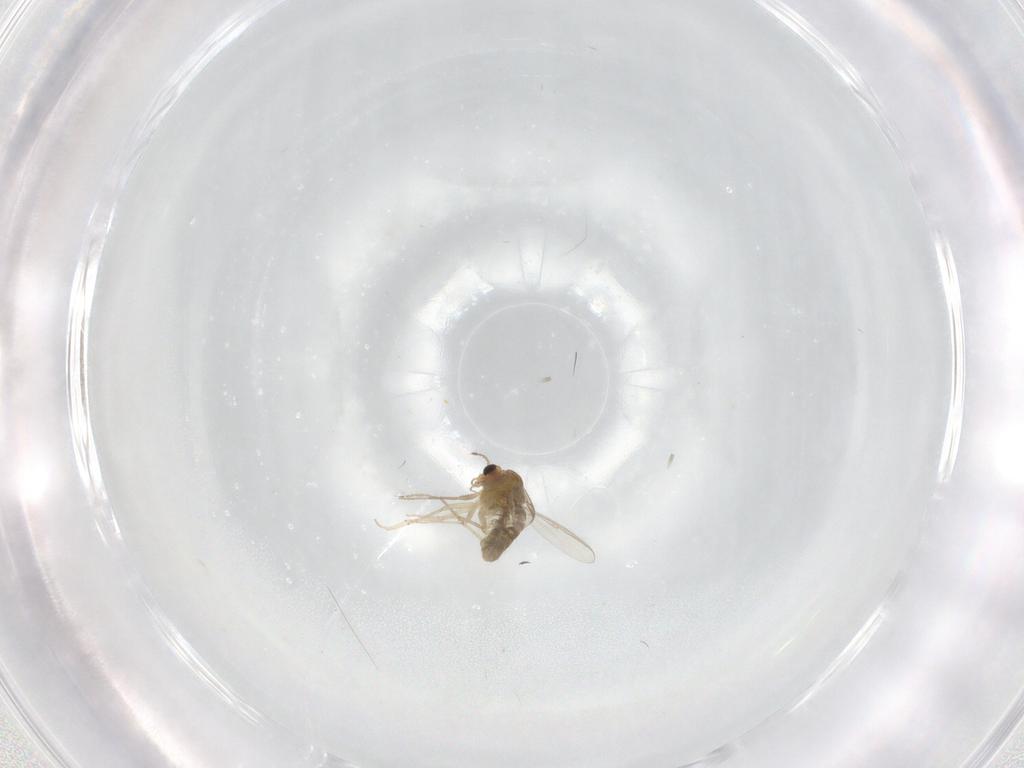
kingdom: Animalia
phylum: Arthropoda
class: Insecta
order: Diptera
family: Chironomidae
